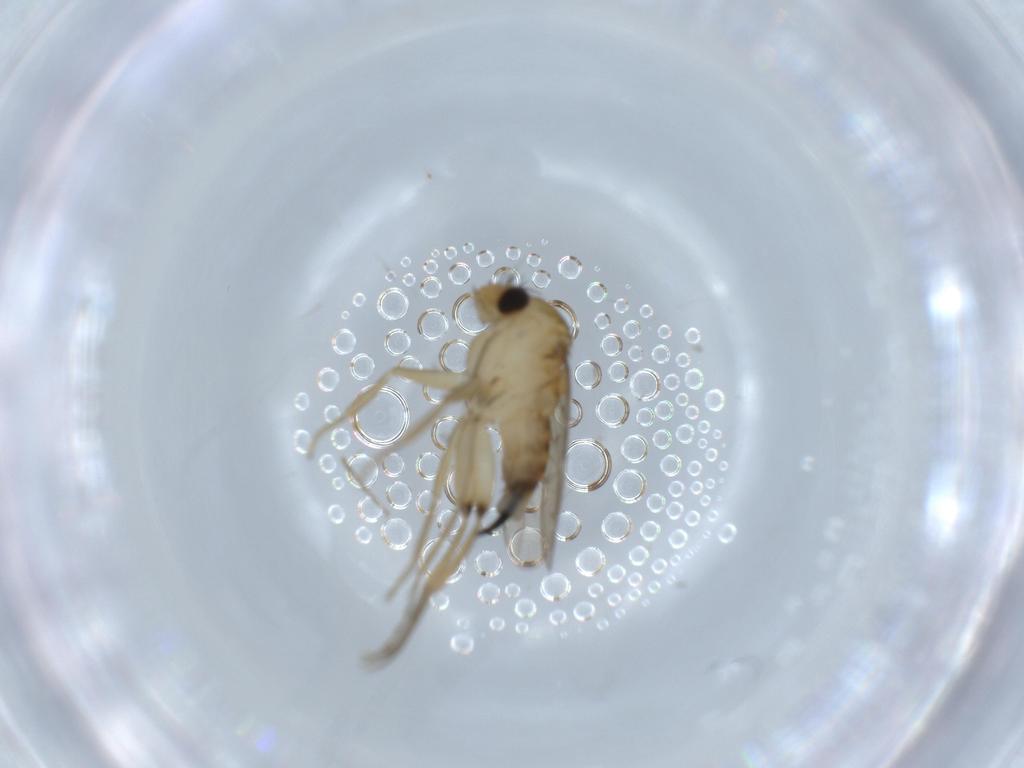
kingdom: Animalia
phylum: Arthropoda
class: Insecta
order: Diptera
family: Phoridae
